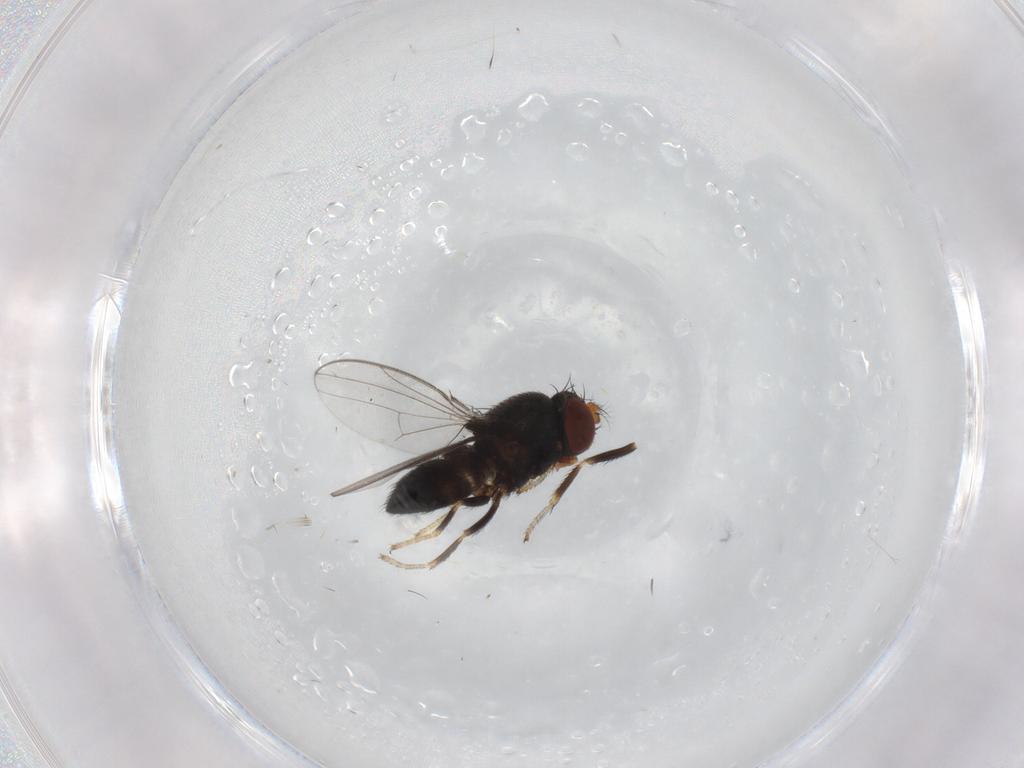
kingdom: Animalia
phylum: Arthropoda
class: Insecta
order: Diptera
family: Ephydridae
